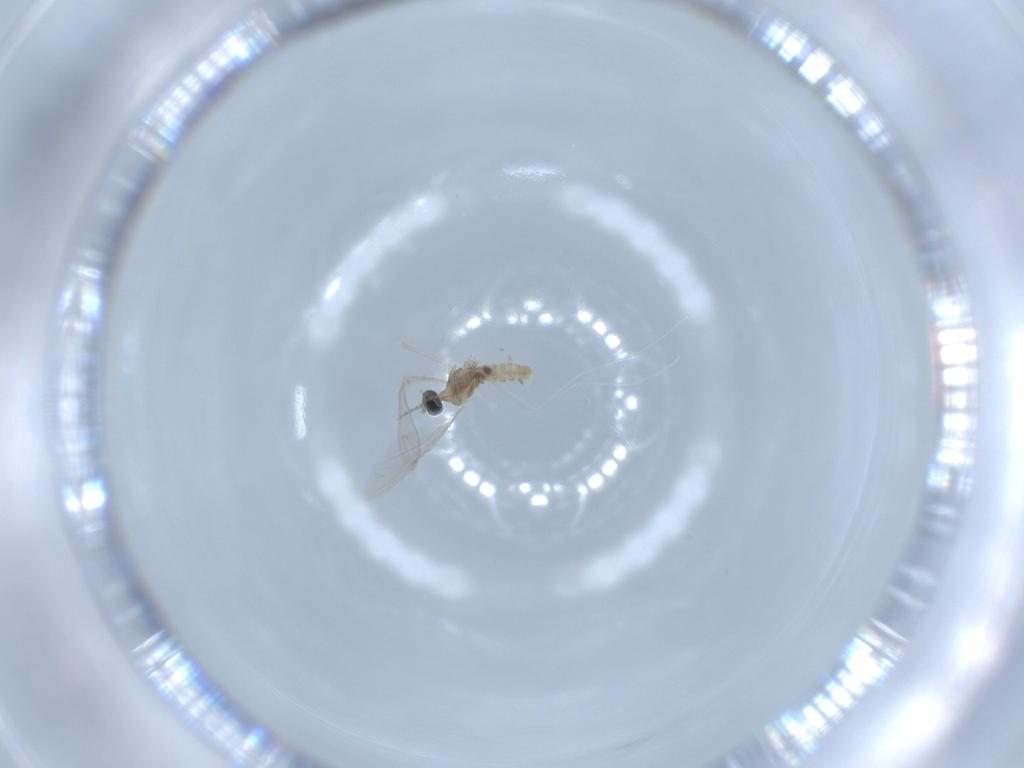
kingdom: Animalia
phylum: Arthropoda
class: Insecta
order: Diptera
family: Cecidomyiidae
